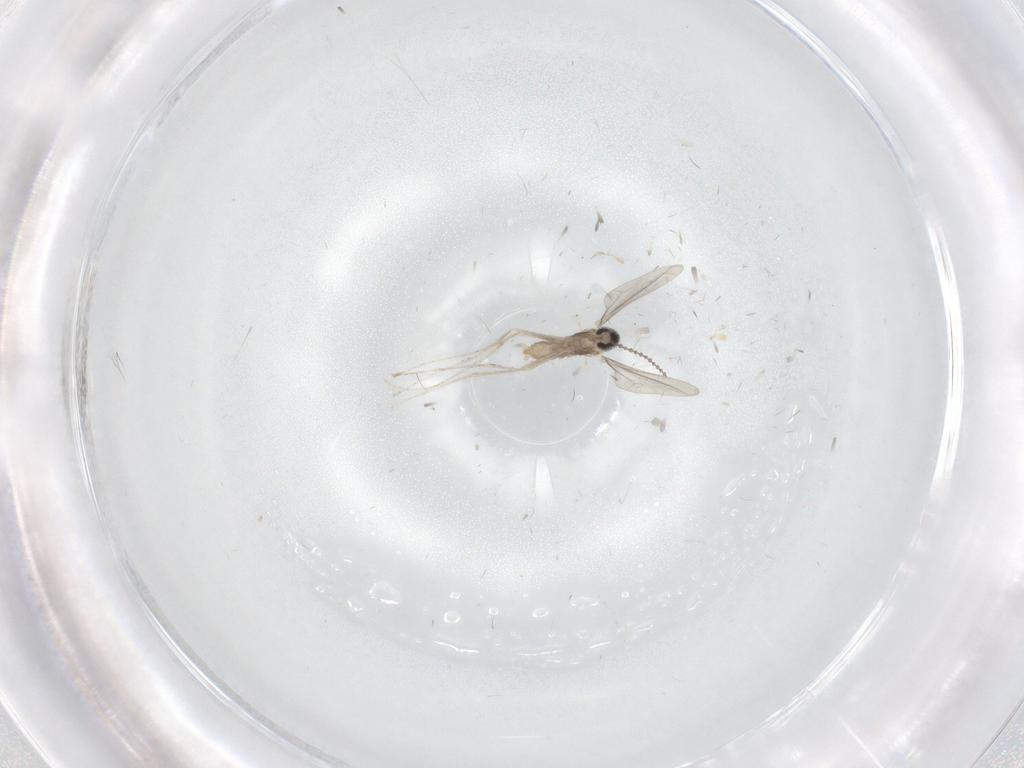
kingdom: Animalia
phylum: Arthropoda
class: Insecta
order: Diptera
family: Cecidomyiidae
